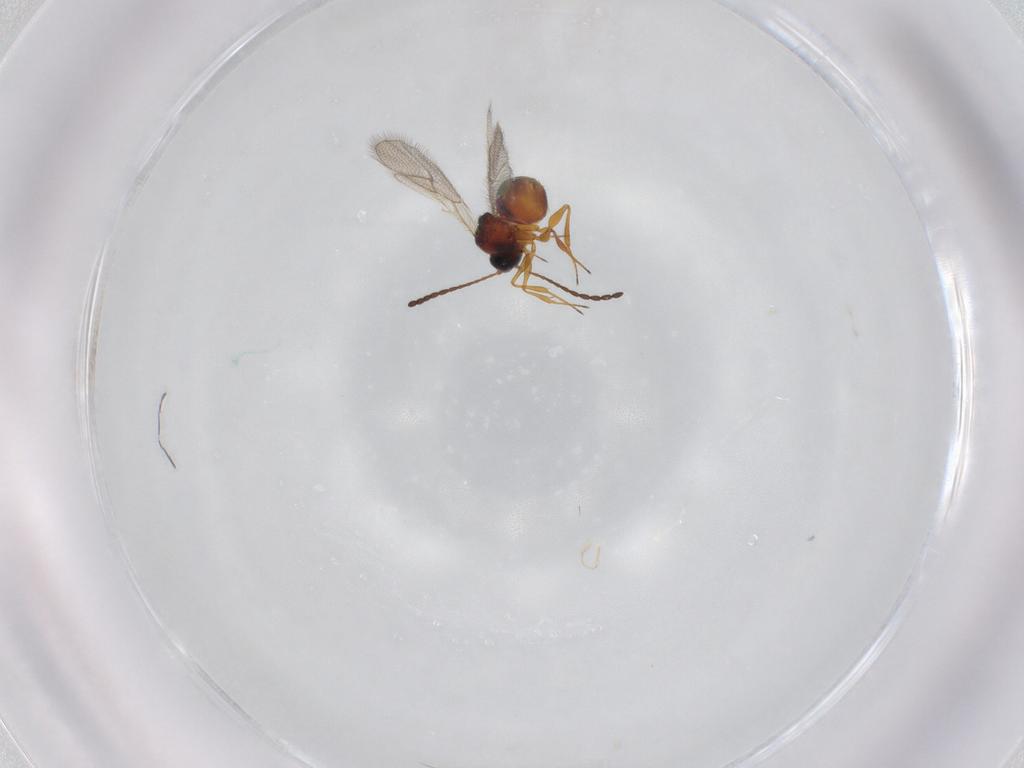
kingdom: Animalia
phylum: Arthropoda
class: Insecta
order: Hymenoptera
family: Figitidae
